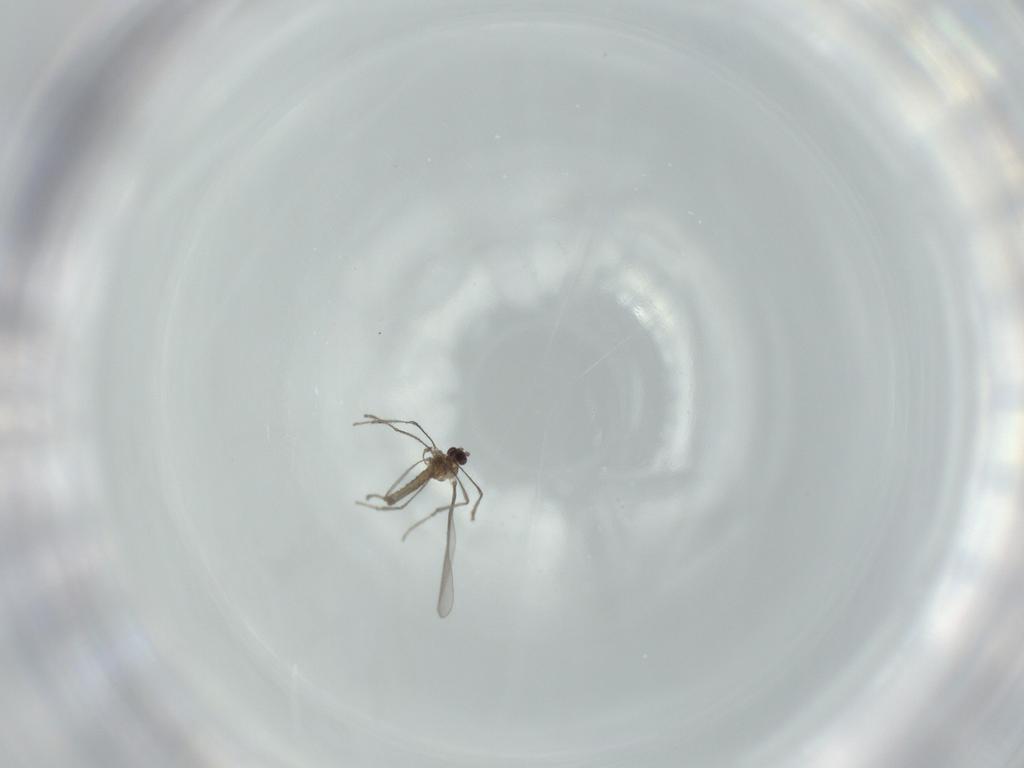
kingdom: Animalia
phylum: Arthropoda
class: Insecta
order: Diptera
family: Cecidomyiidae
